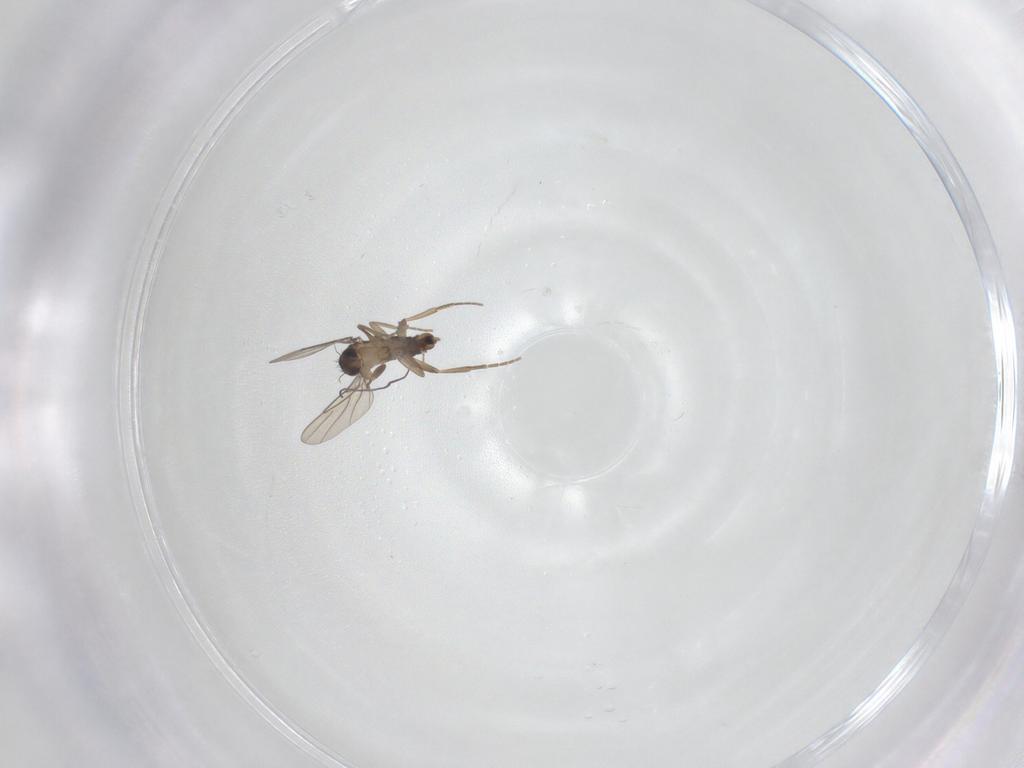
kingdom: Animalia
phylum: Arthropoda
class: Insecta
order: Diptera
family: Phoridae
